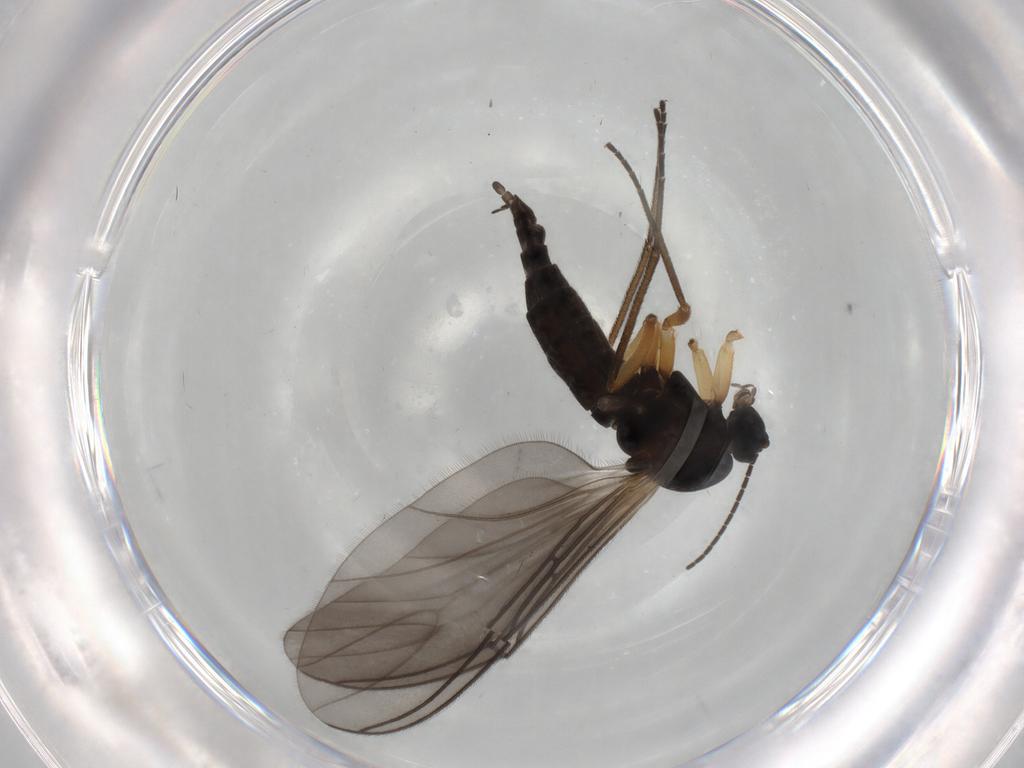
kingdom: Animalia
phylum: Arthropoda
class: Insecta
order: Diptera
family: Sciaridae
